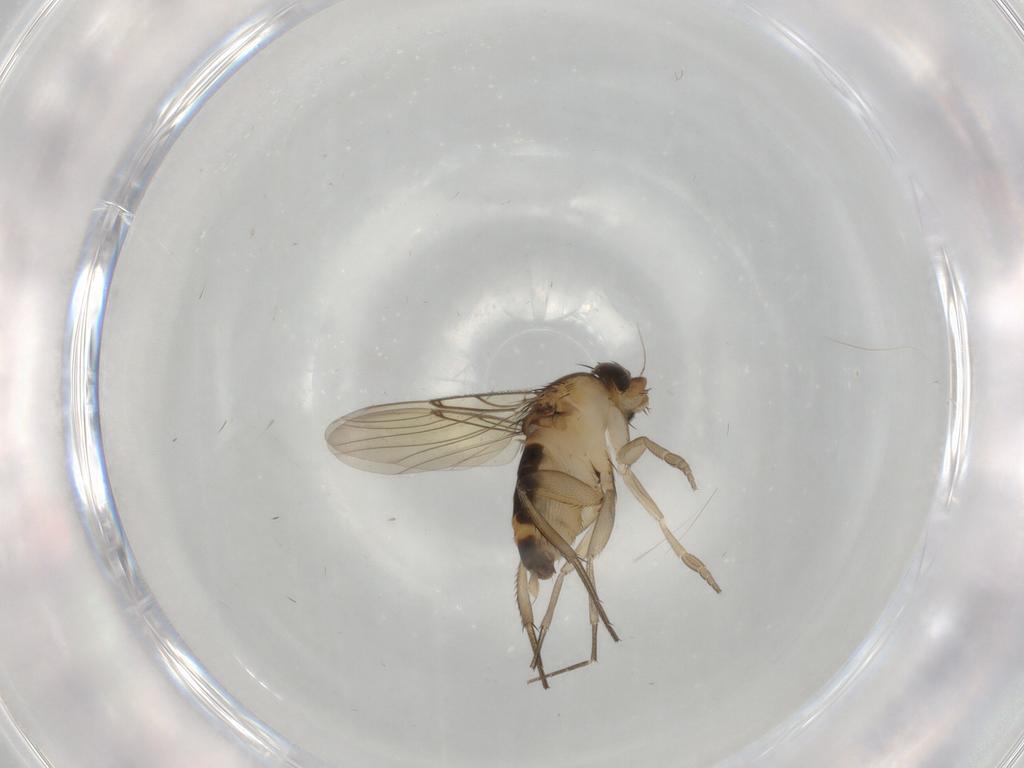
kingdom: Animalia
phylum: Arthropoda
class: Insecta
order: Diptera
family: Phoridae
